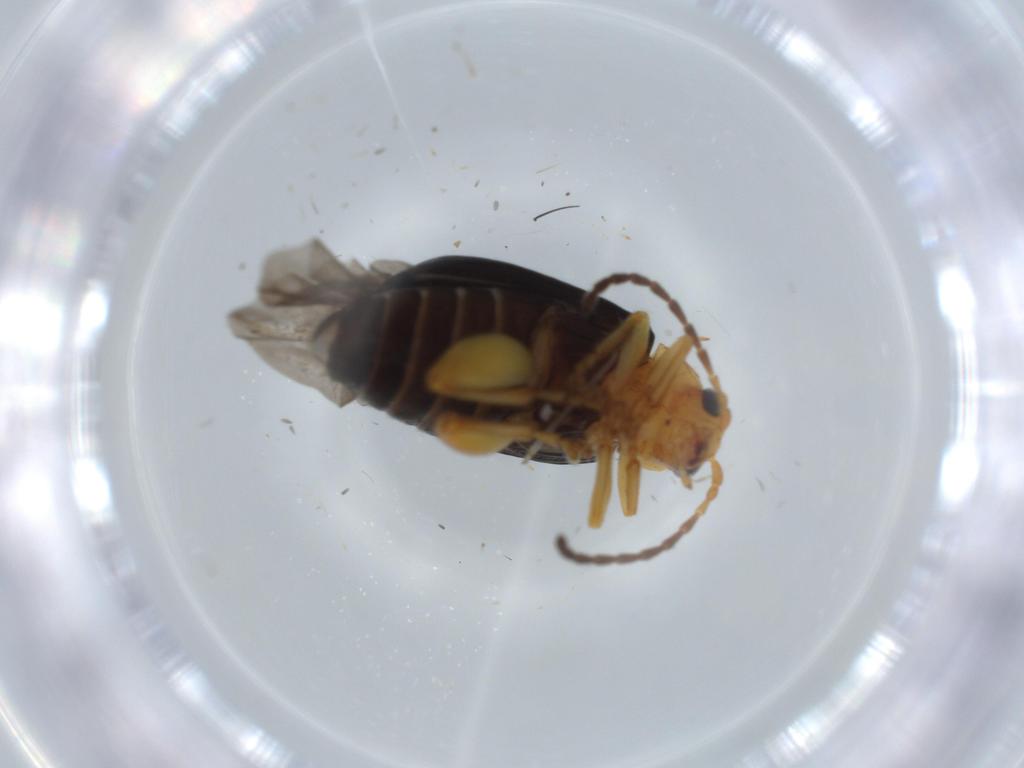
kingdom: Animalia
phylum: Arthropoda
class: Insecta
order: Coleoptera
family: Chrysomelidae
